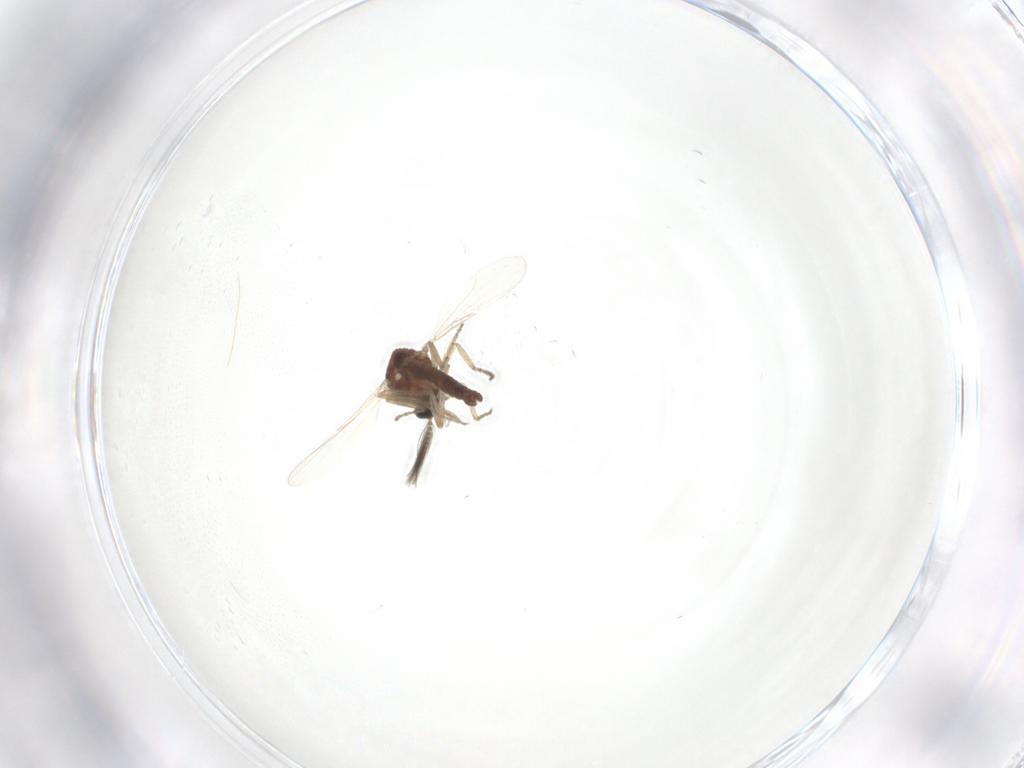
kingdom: Animalia
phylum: Arthropoda
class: Insecta
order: Diptera
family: Ceratopogonidae
